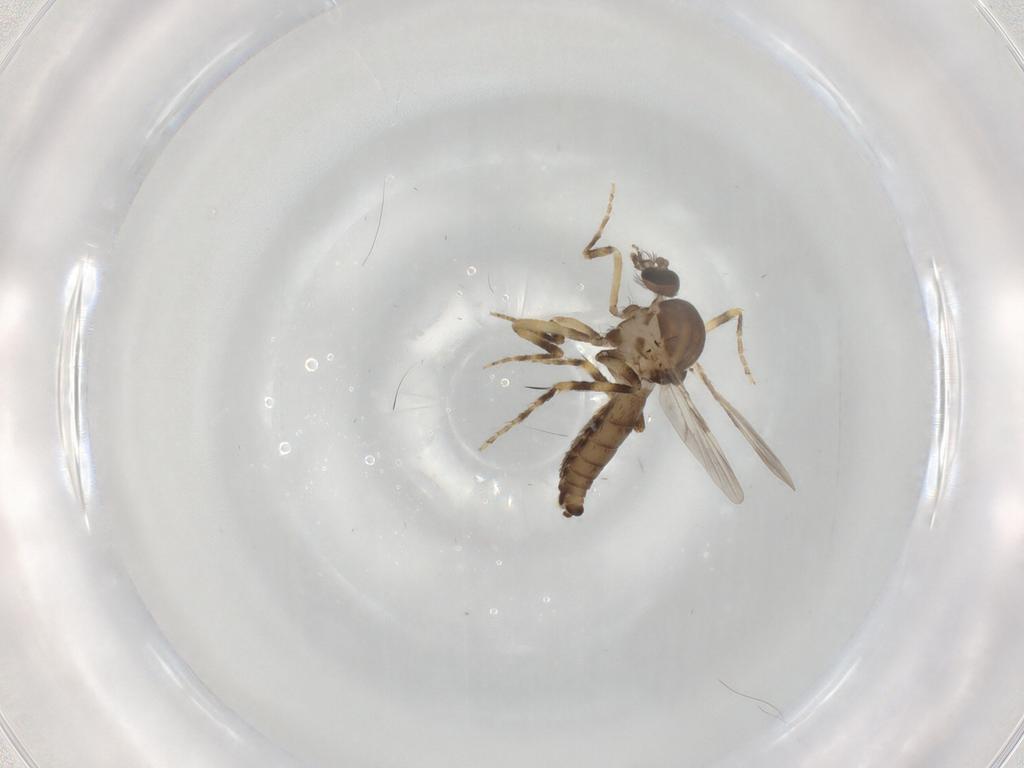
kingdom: Animalia
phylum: Arthropoda
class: Insecta
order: Diptera
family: Ceratopogonidae
